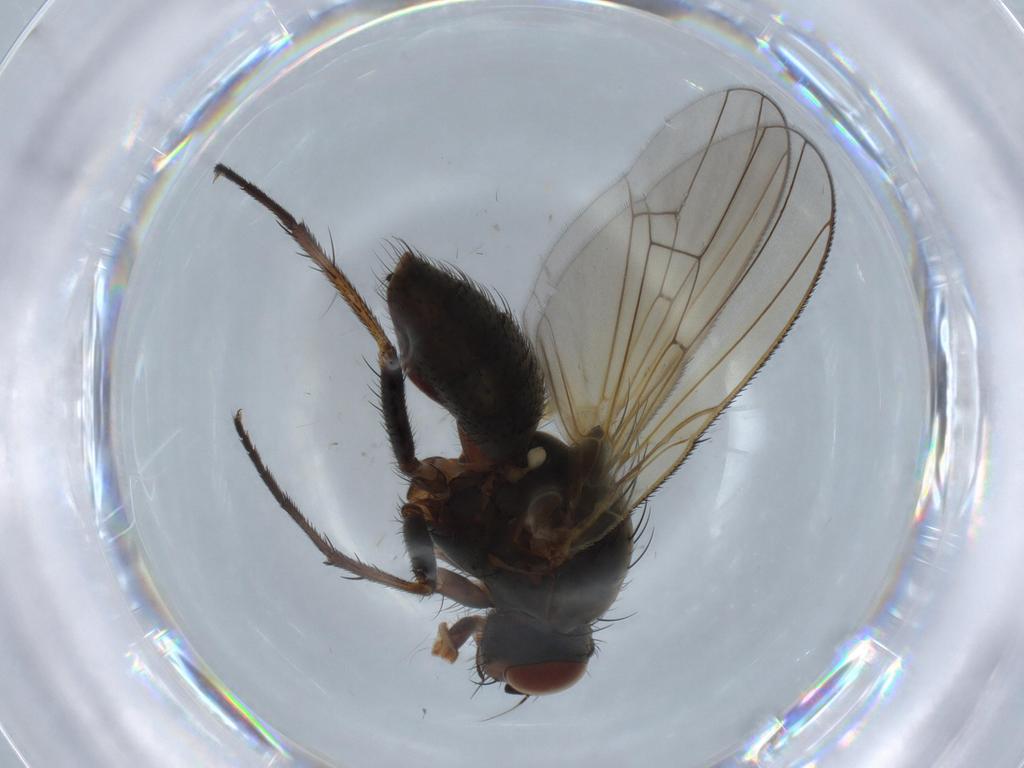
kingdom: Animalia
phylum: Arthropoda
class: Insecta
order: Diptera
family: Anthomyiidae
